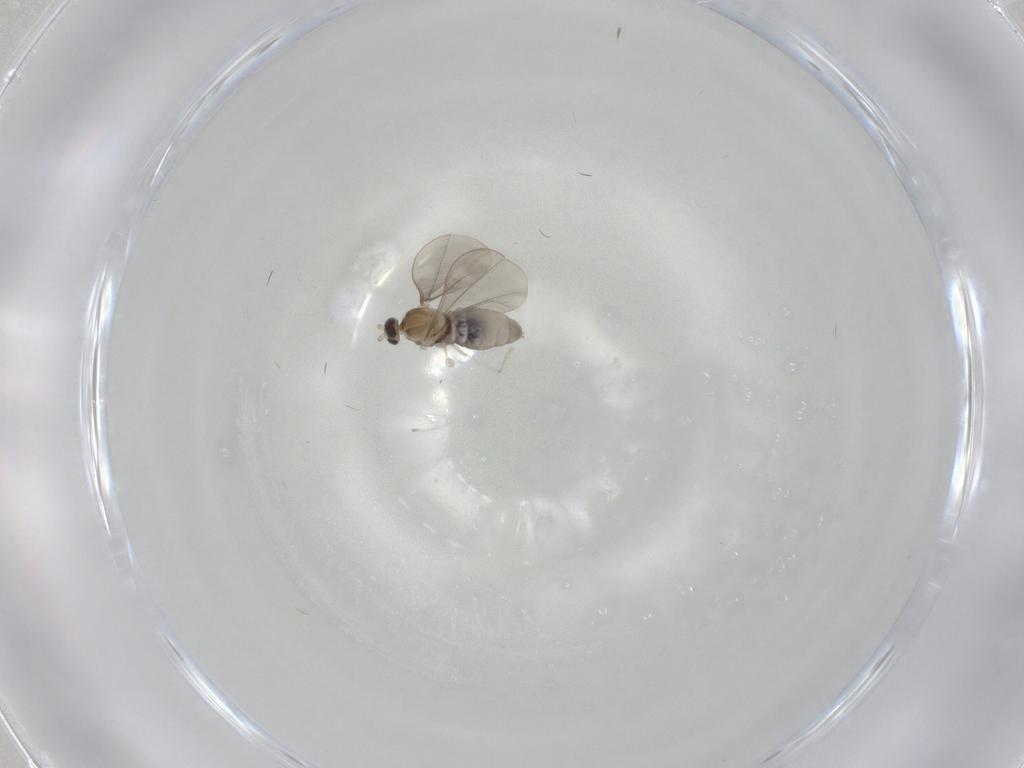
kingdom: Animalia
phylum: Arthropoda
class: Insecta
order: Diptera
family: Cecidomyiidae
